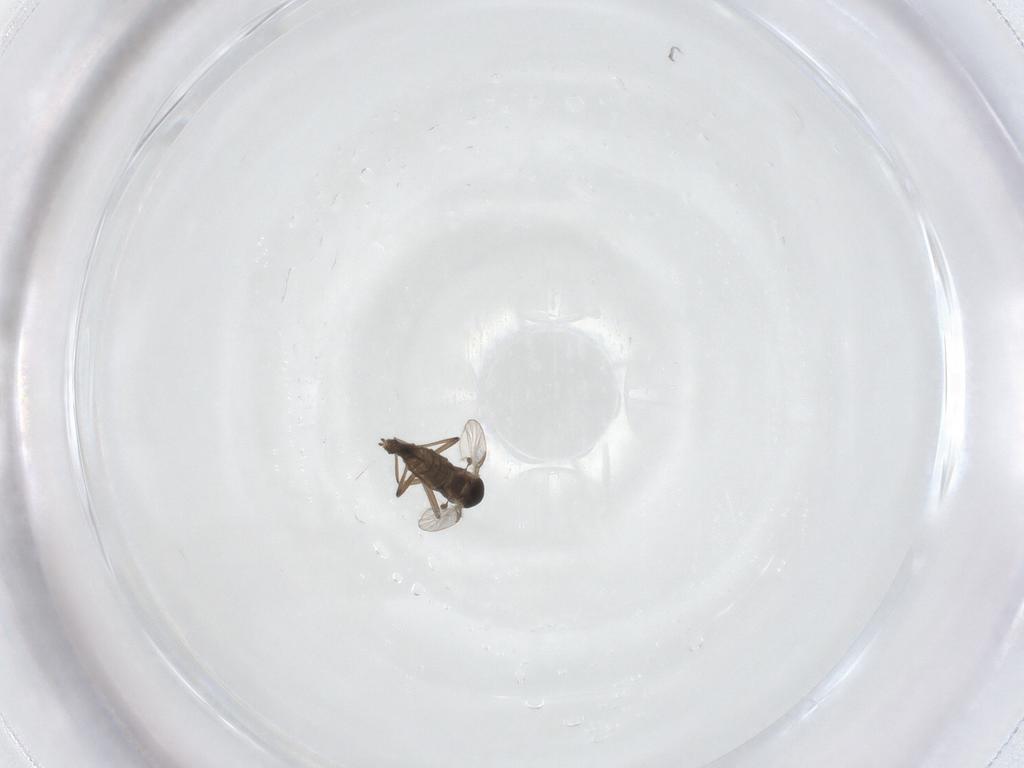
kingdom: Animalia
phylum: Arthropoda
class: Insecta
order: Diptera
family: Chironomidae
